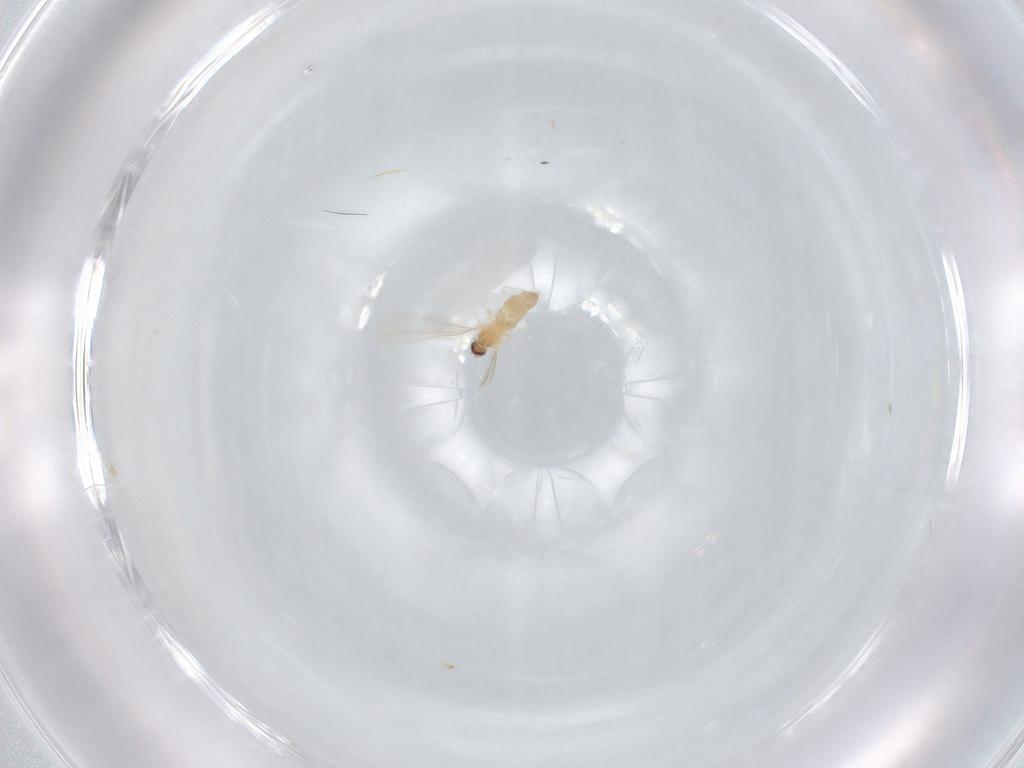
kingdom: Animalia
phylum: Arthropoda
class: Insecta
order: Diptera
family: Cecidomyiidae
